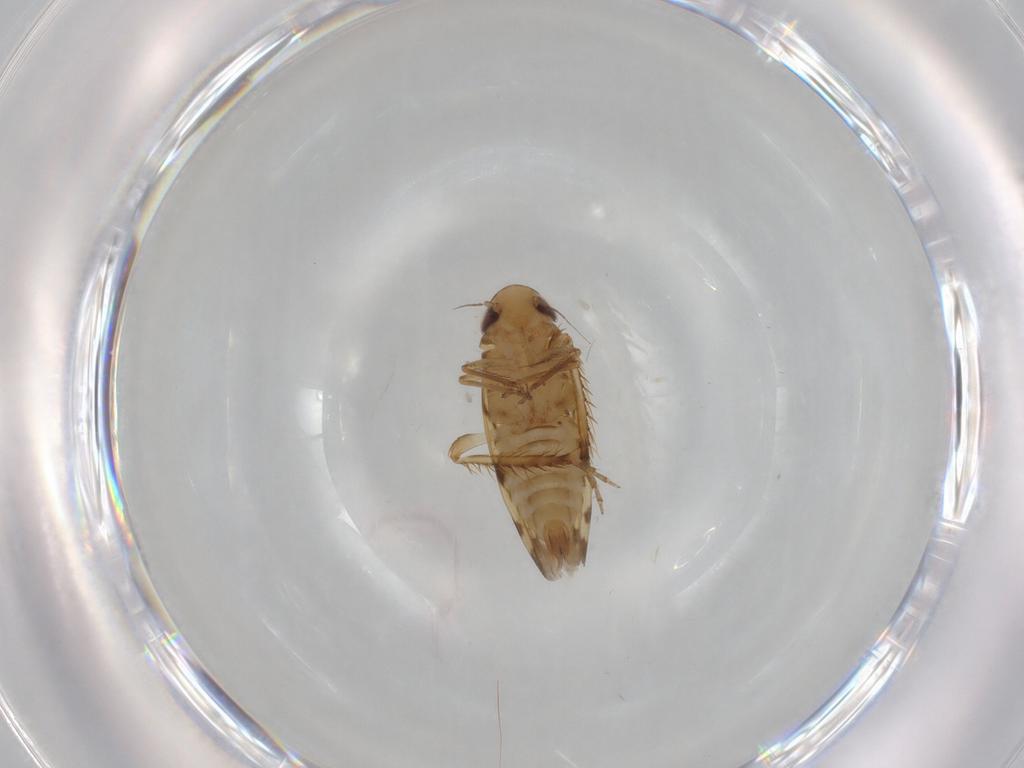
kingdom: Animalia
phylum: Arthropoda
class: Insecta
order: Hemiptera
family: Cicadellidae
